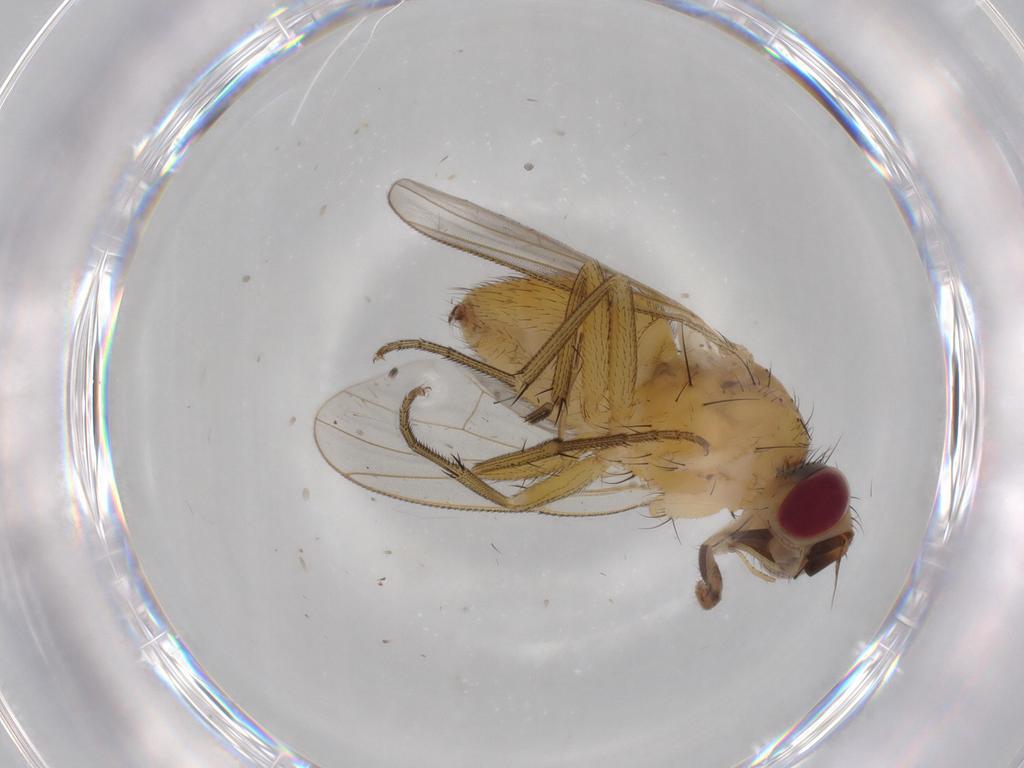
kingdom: Animalia
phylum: Arthropoda
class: Insecta
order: Diptera
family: Muscidae
